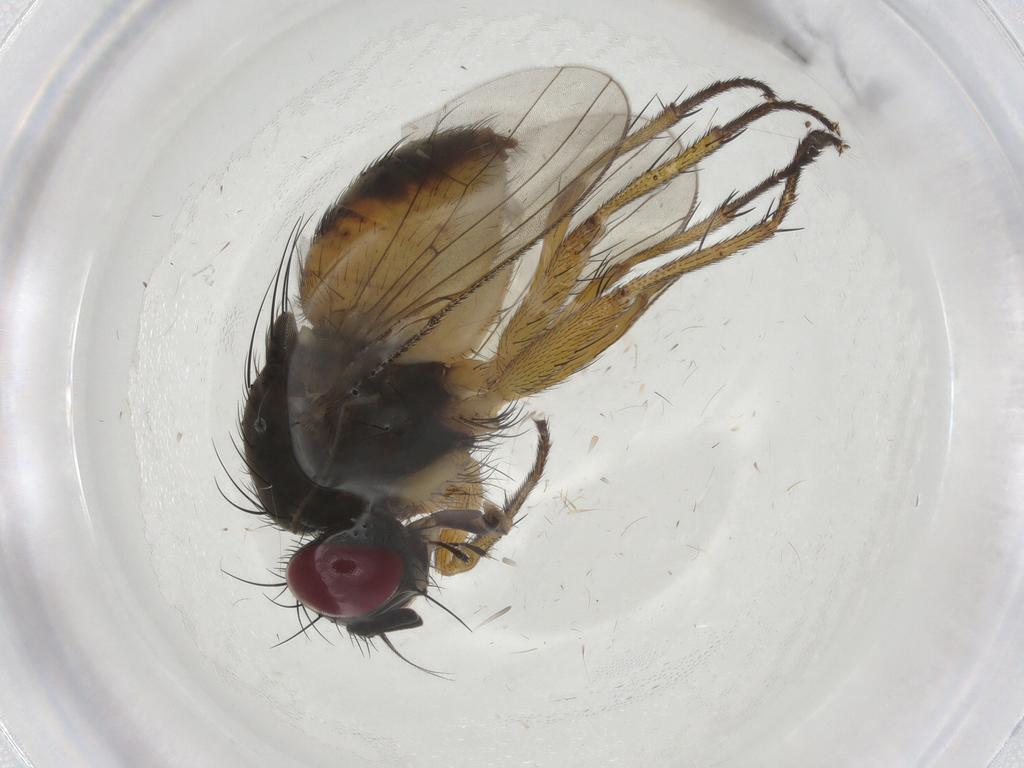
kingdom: Animalia
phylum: Arthropoda
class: Insecta
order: Diptera
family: Muscidae
